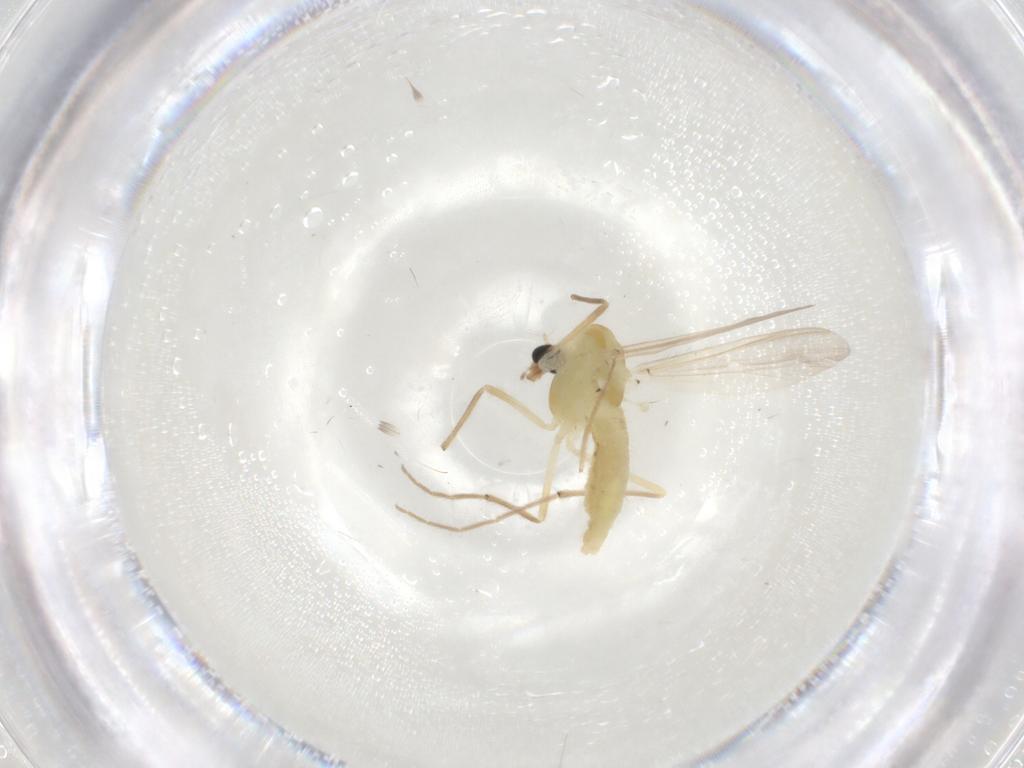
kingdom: Animalia
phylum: Arthropoda
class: Insecta
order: Diptera
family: Chironomidae
